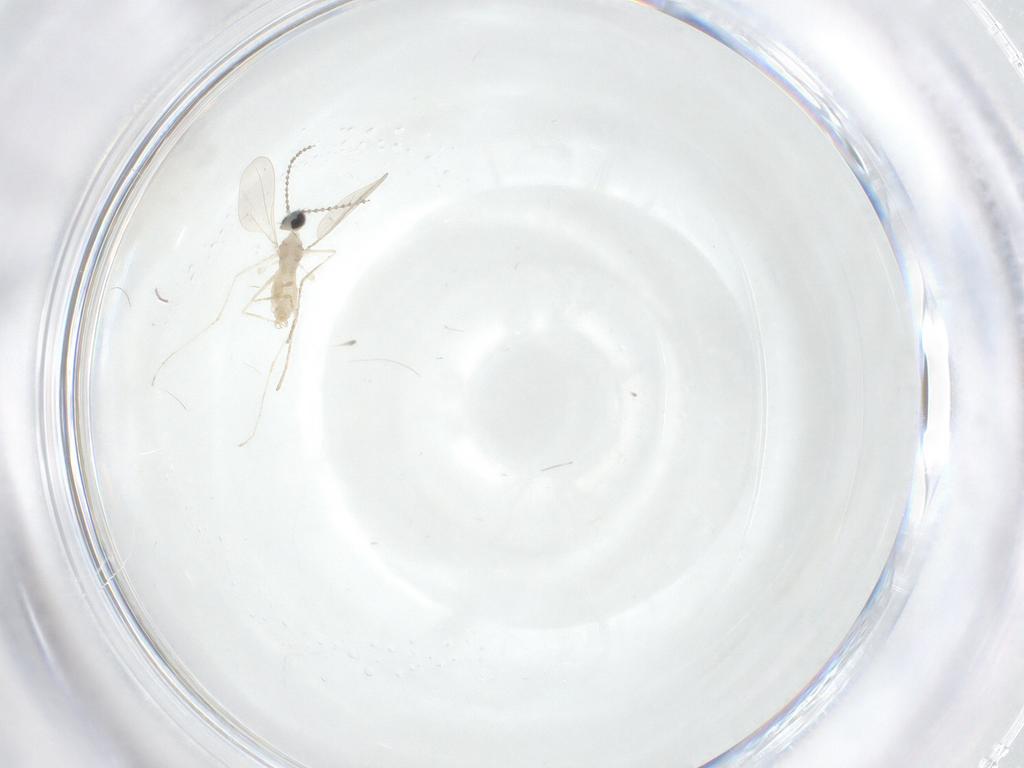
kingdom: Animalia
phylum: Arthropoda
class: Insecta
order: Diptera
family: Cecidomyiidae
